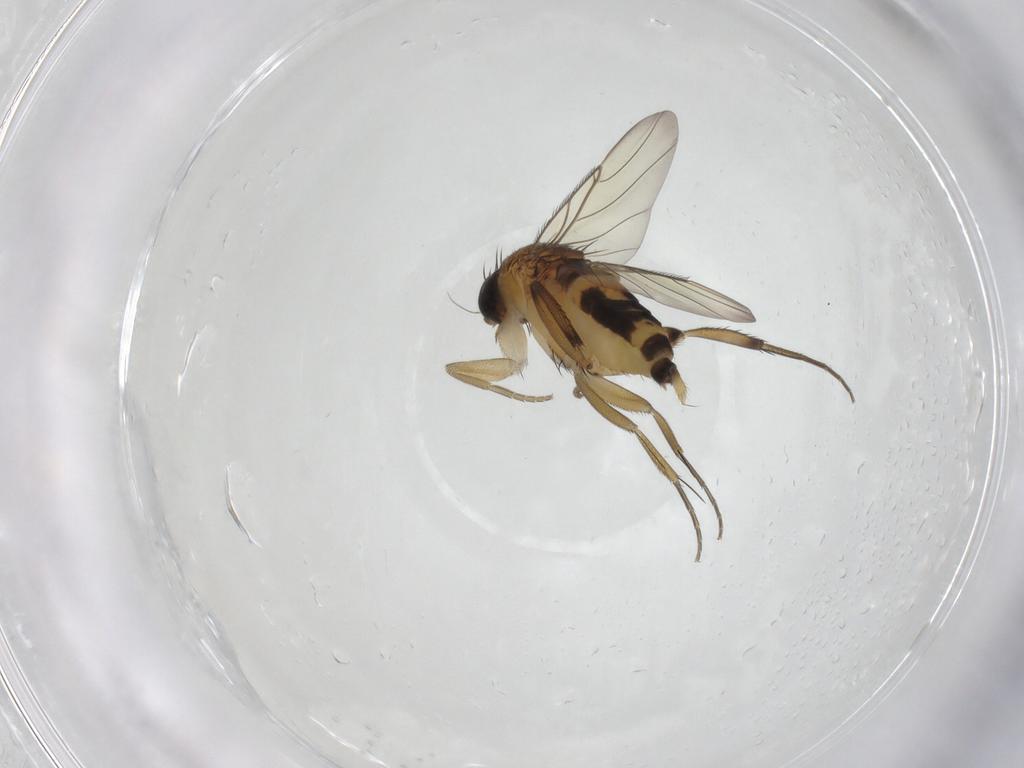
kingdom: Animalia
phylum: Arthropoda
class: Insecta
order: Diptera
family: Phoridae
